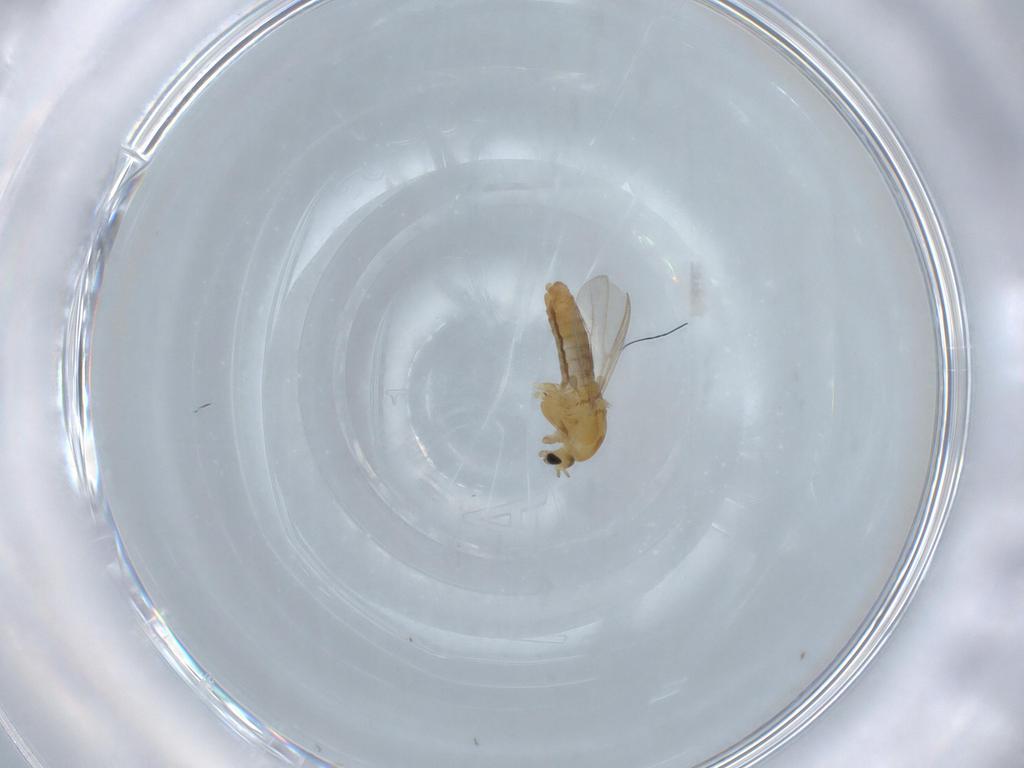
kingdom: Animalia
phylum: Arthropoda
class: Insecta
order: Diptera
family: Chironomidae
